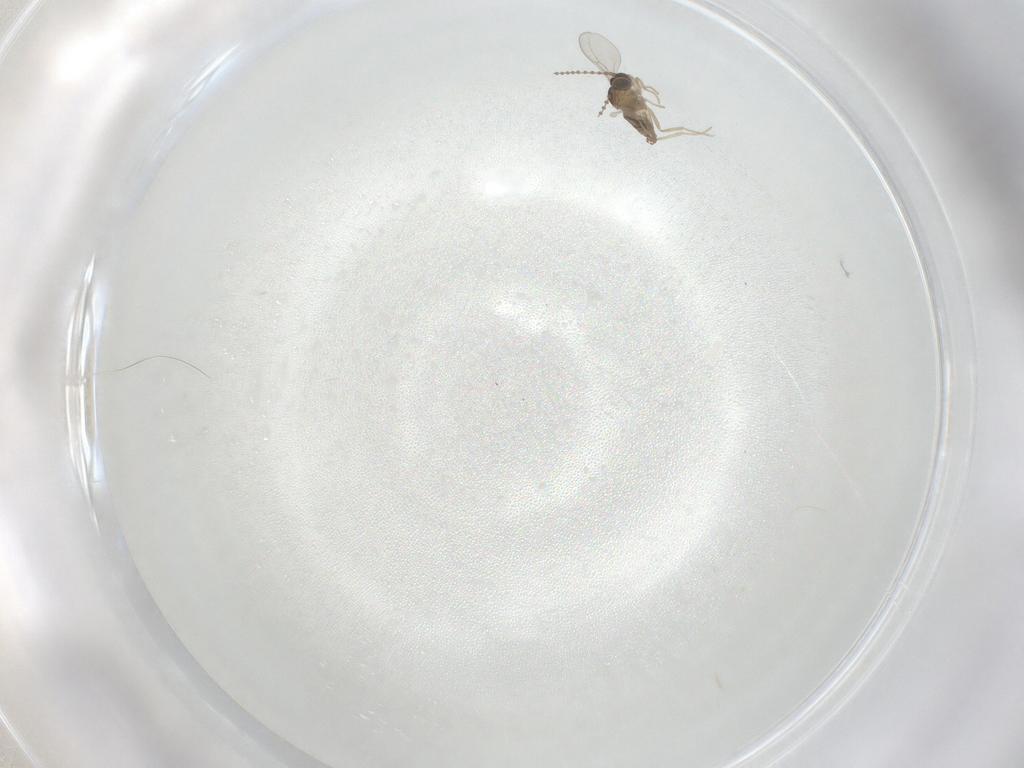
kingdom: Animalia
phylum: Arthropoda
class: Insecta
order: Diptera
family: Cecidomyiidae
